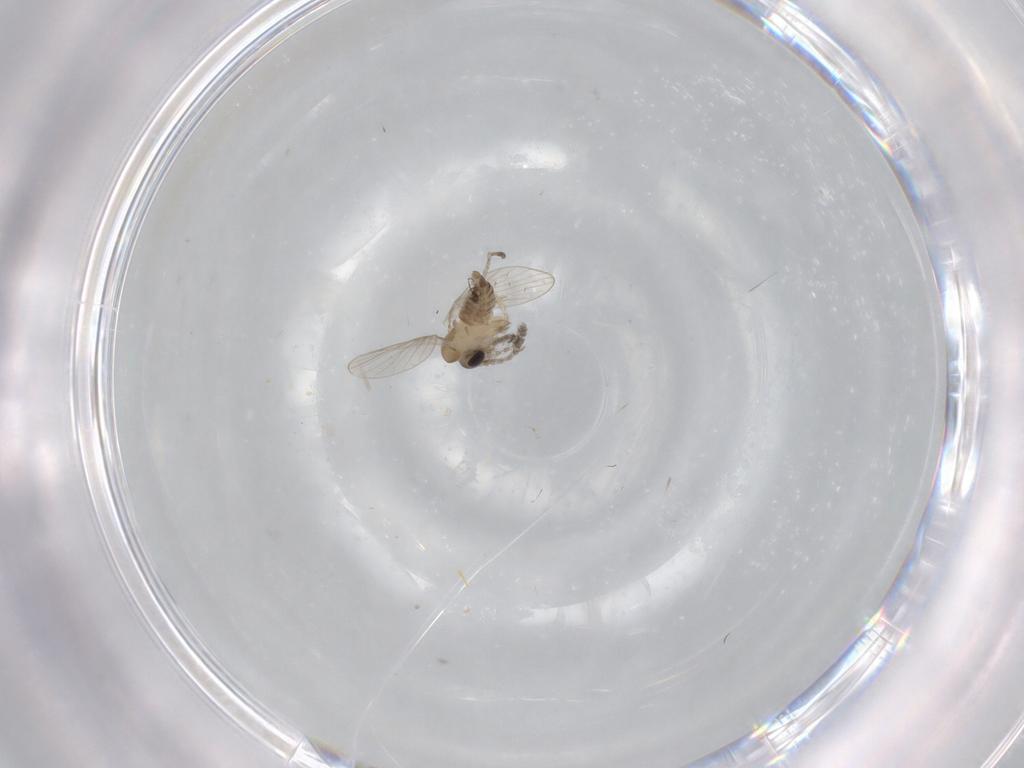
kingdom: Animalia
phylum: Arthropoda
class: Insecta
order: Diptera
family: Psychodidae
